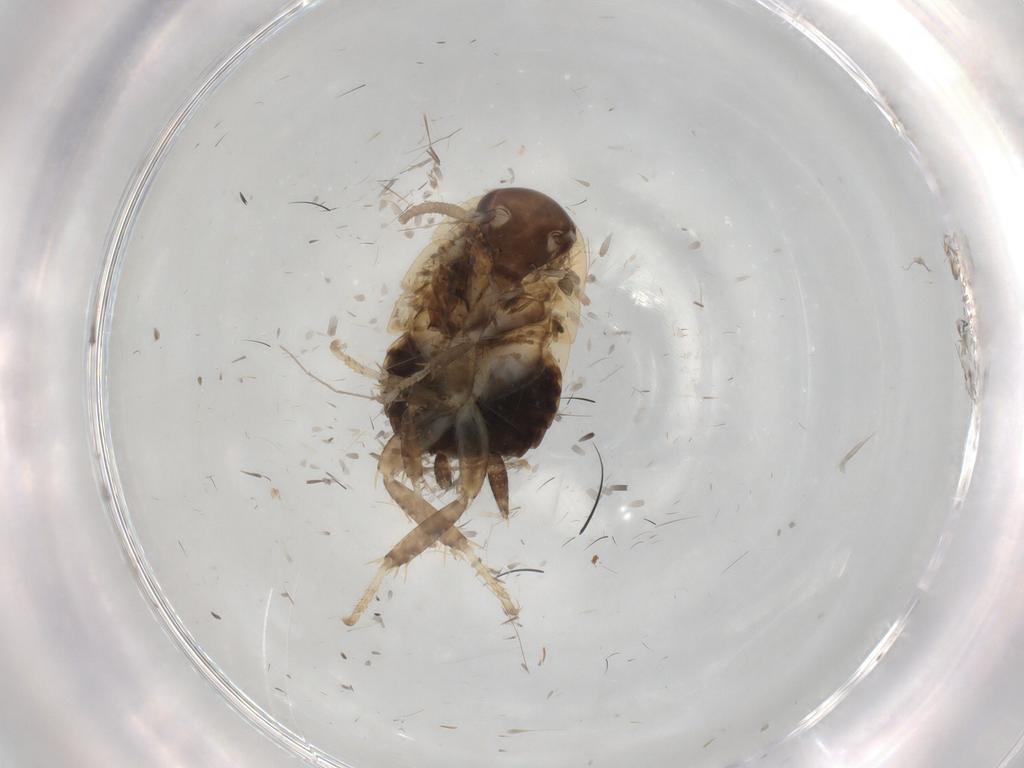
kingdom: Animalia
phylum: Arthropoda
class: Insecta
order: Blattodea
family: Ectobiidae
